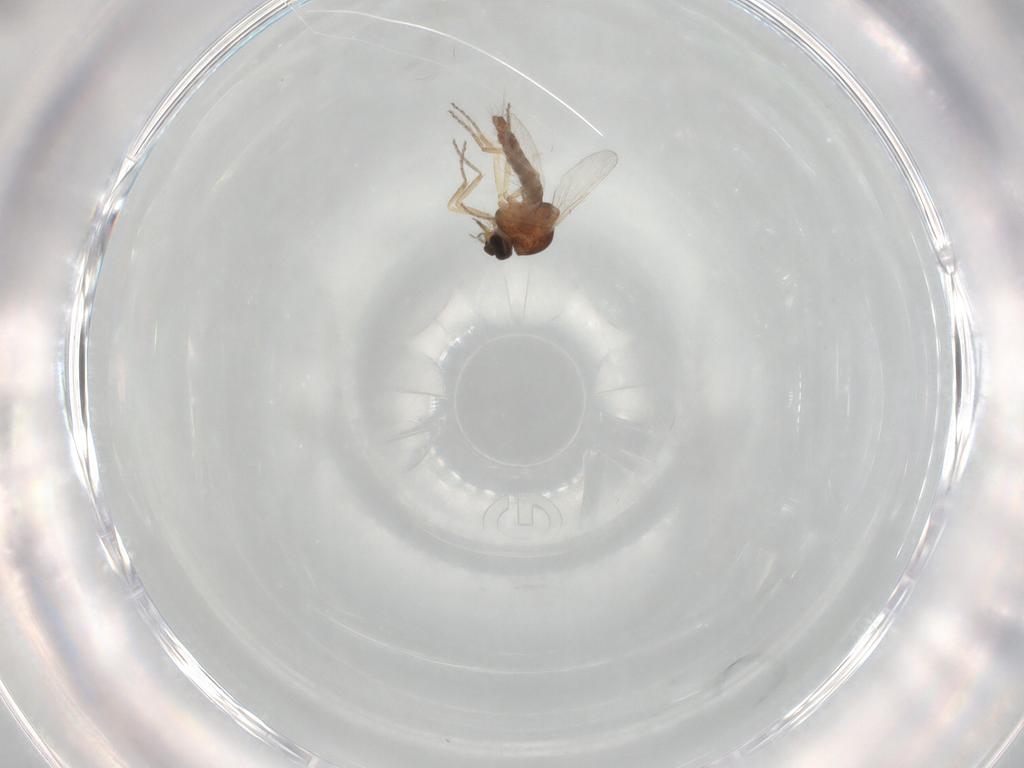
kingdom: Animalia
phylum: Arthropoda
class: Insecta
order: Diptera
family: Ceratopogonidae
